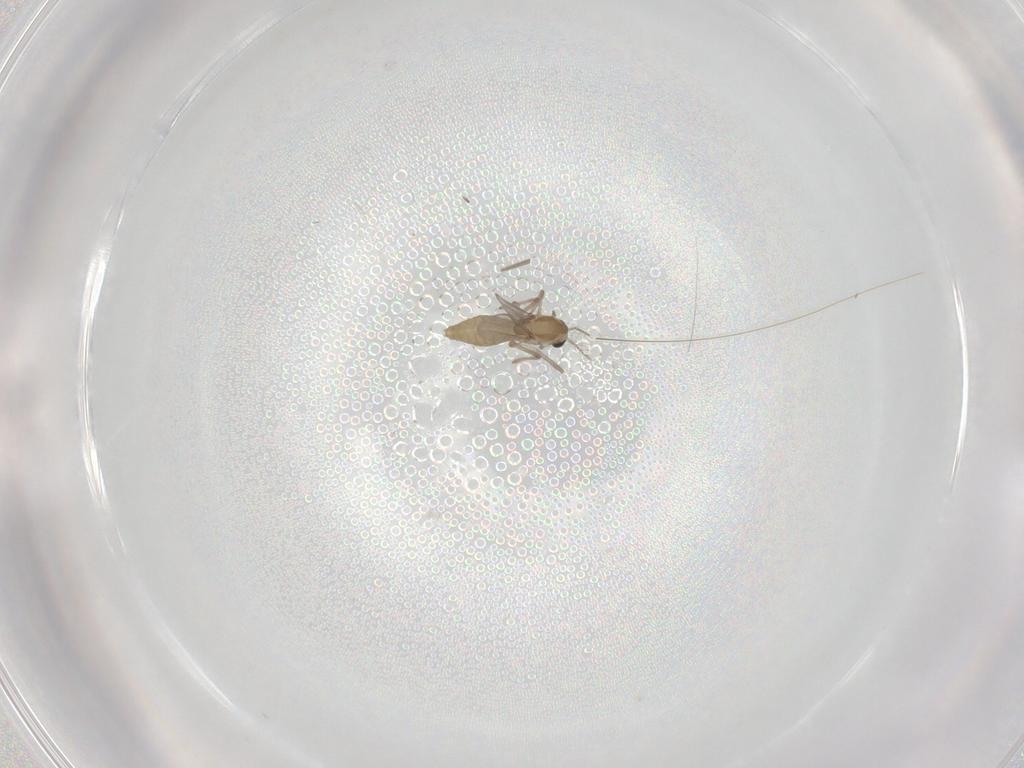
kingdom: Animalia
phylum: Arthropoda
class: Insecta
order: Diptera
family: Chironomidae
